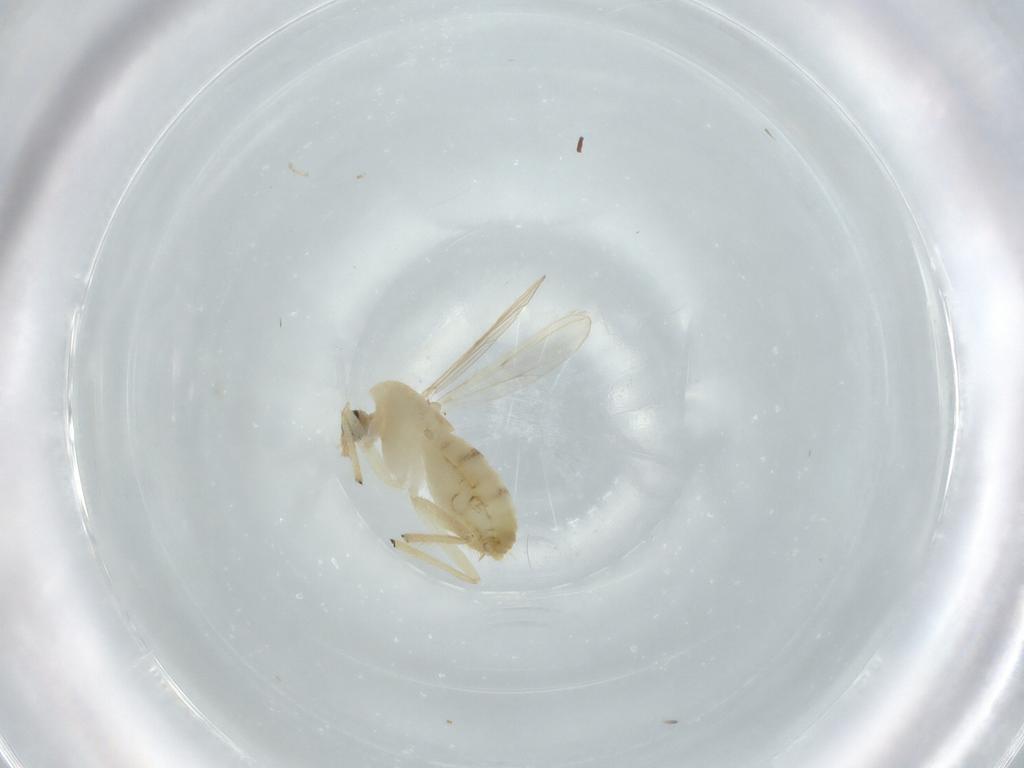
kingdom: Animalia
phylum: Arthropoda
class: Insecta
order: Diptera
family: Chironomidae
